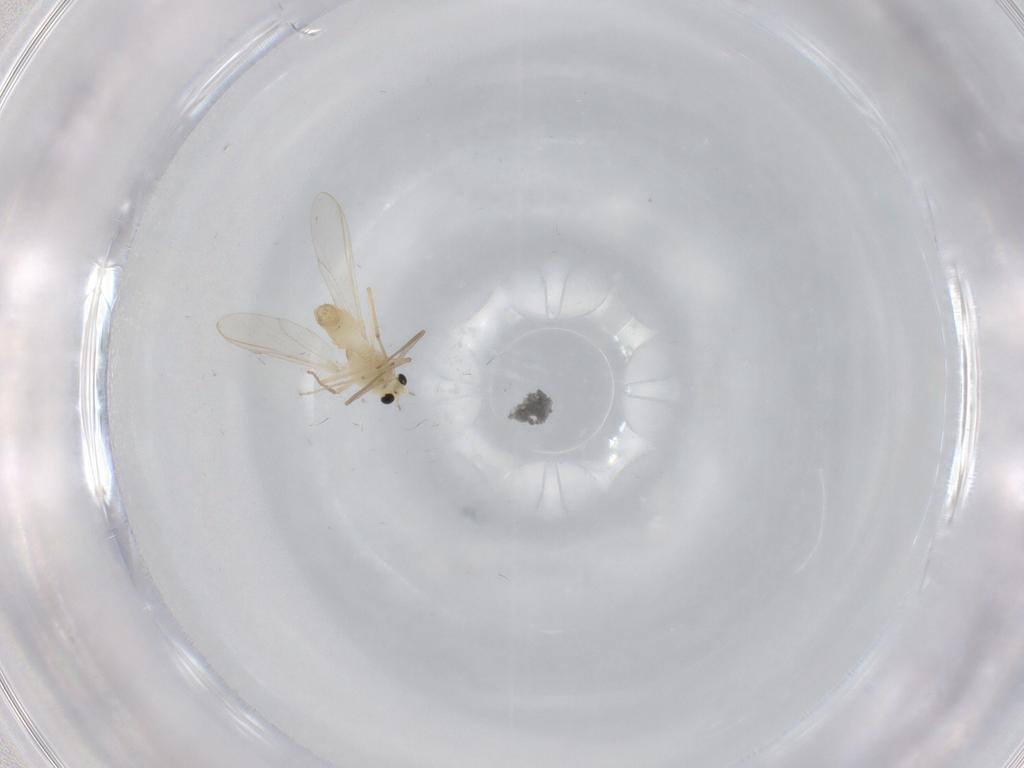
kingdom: Animalia
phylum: Arthropoda
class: Insecta
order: Diptera
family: Chironomidae
